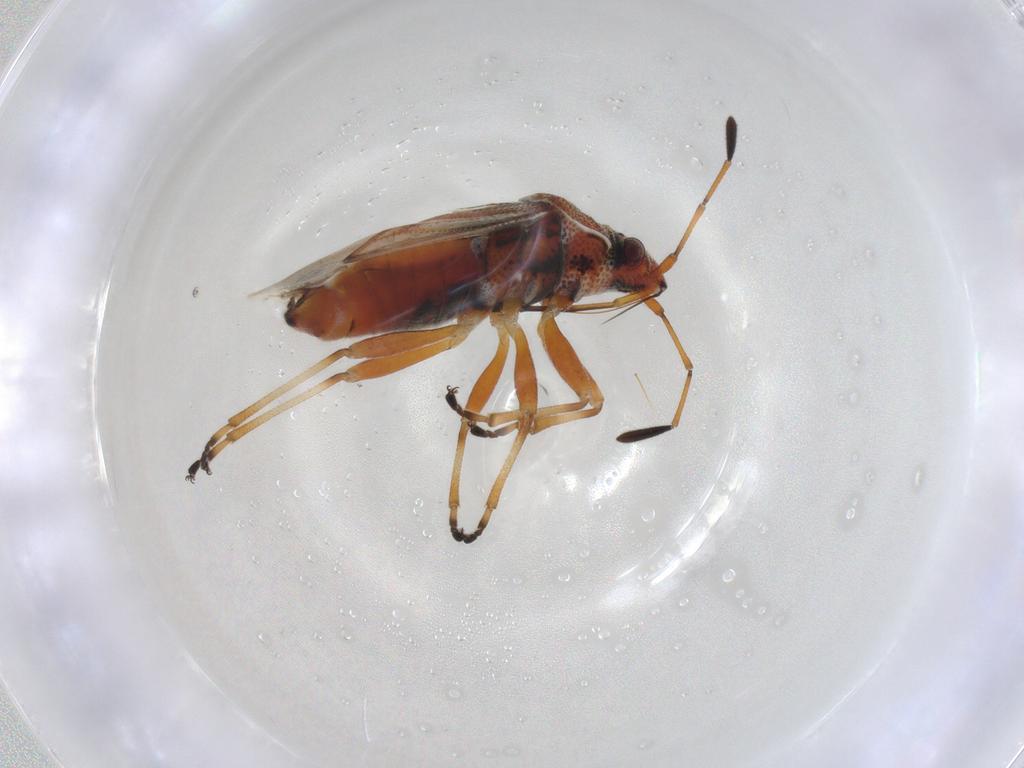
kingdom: Animalia
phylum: Arthropoda
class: Insecta
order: Hemiptera
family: Lygaeidae
